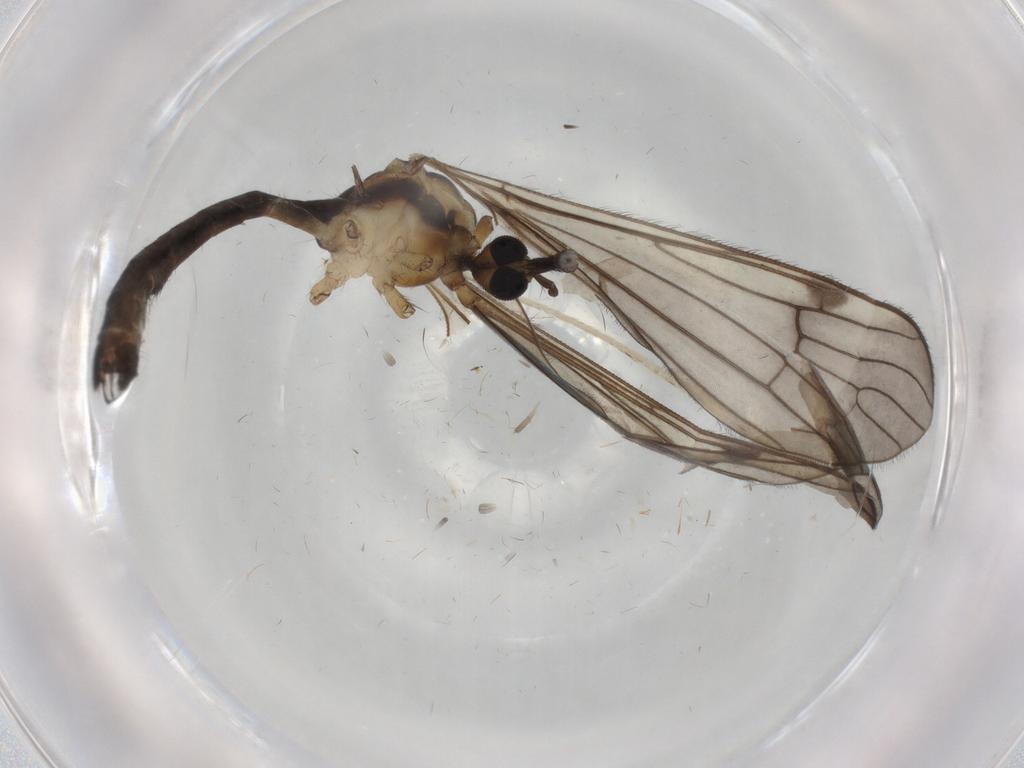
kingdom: Animalia
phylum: Arthropoda
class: Insecta
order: Diptera
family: Limoniidae
